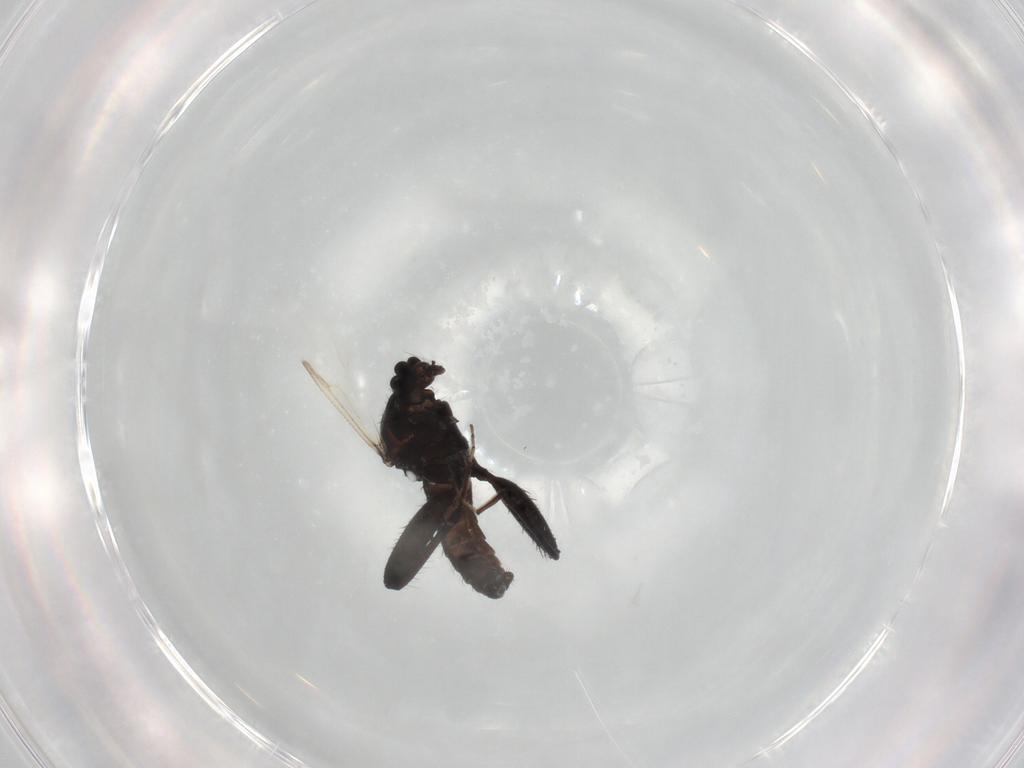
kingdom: Animalia
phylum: Arthropoda
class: Insecta
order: Diptera
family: Ceratopogonidae
